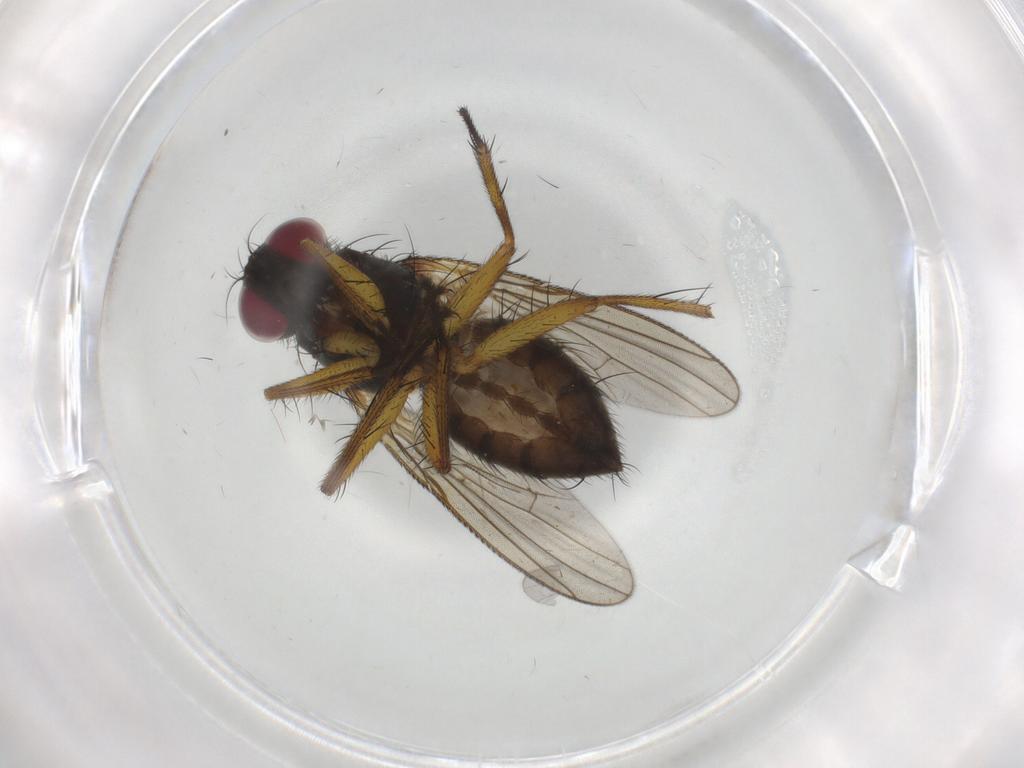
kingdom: Animalia
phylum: Arthropoda
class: Insecta
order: Diptera
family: Muscidae
